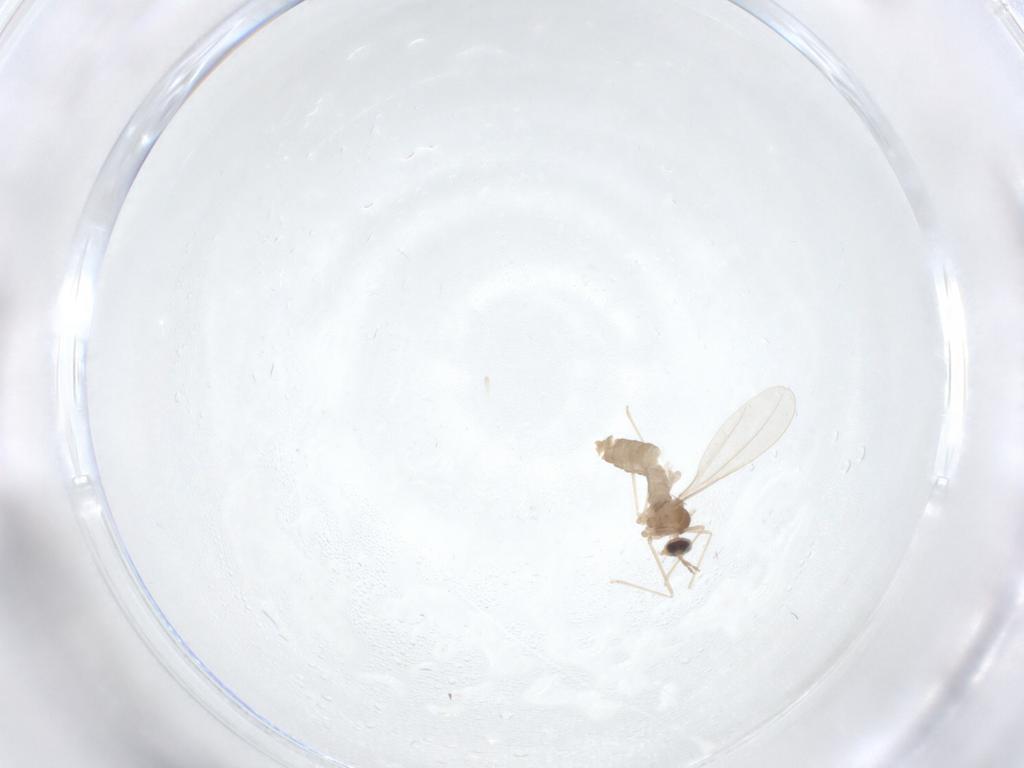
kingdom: Animalia
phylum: Arthropoda
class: Insecta
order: Diptera
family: Cecidomyiidae
